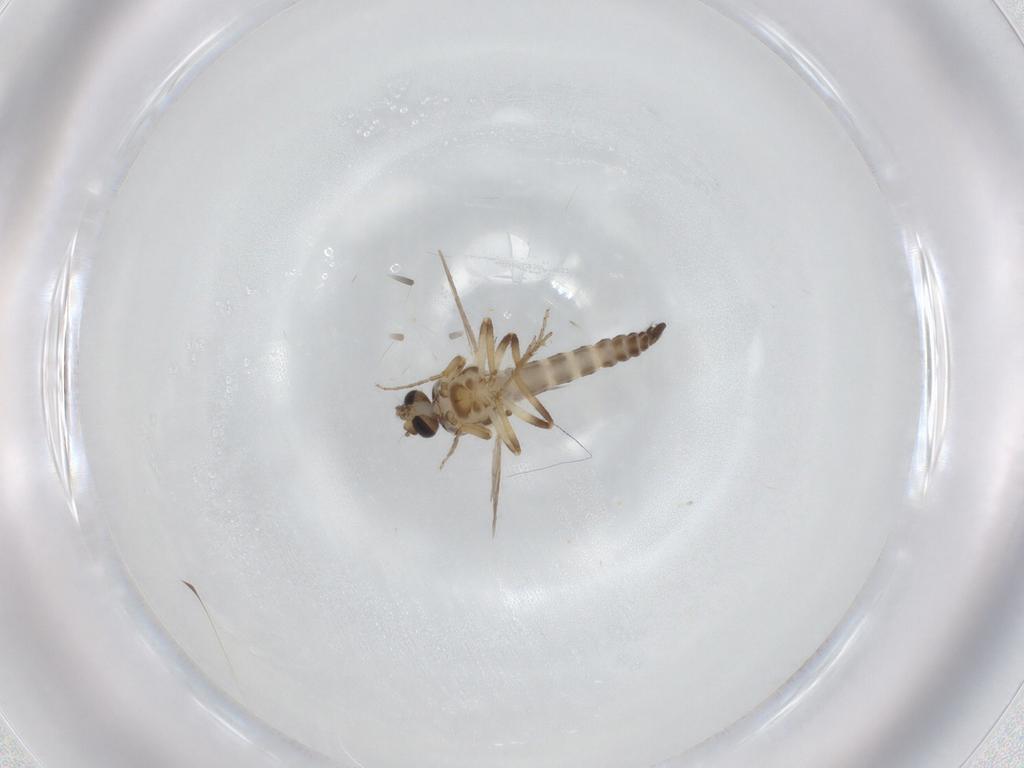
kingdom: Animalia
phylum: Arthropoda
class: Insecta
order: Diptera
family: Ceratopogonidae
